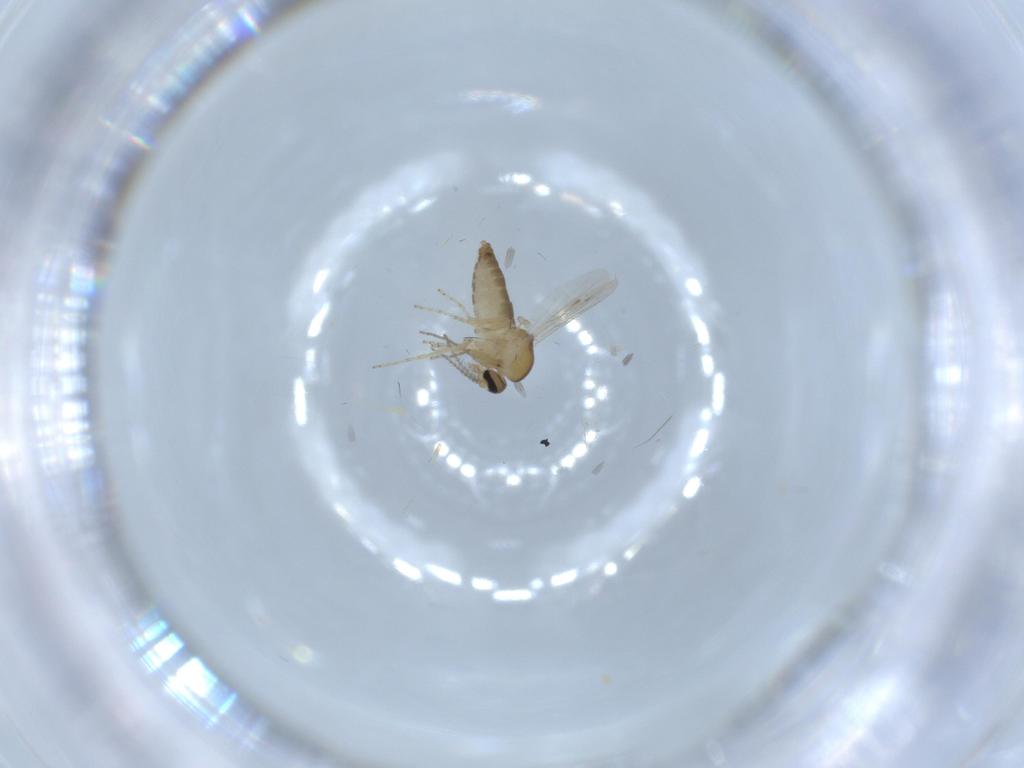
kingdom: Animalia
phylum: Arthropoda
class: Insecta
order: Diptera
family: Ceratopogonidae
